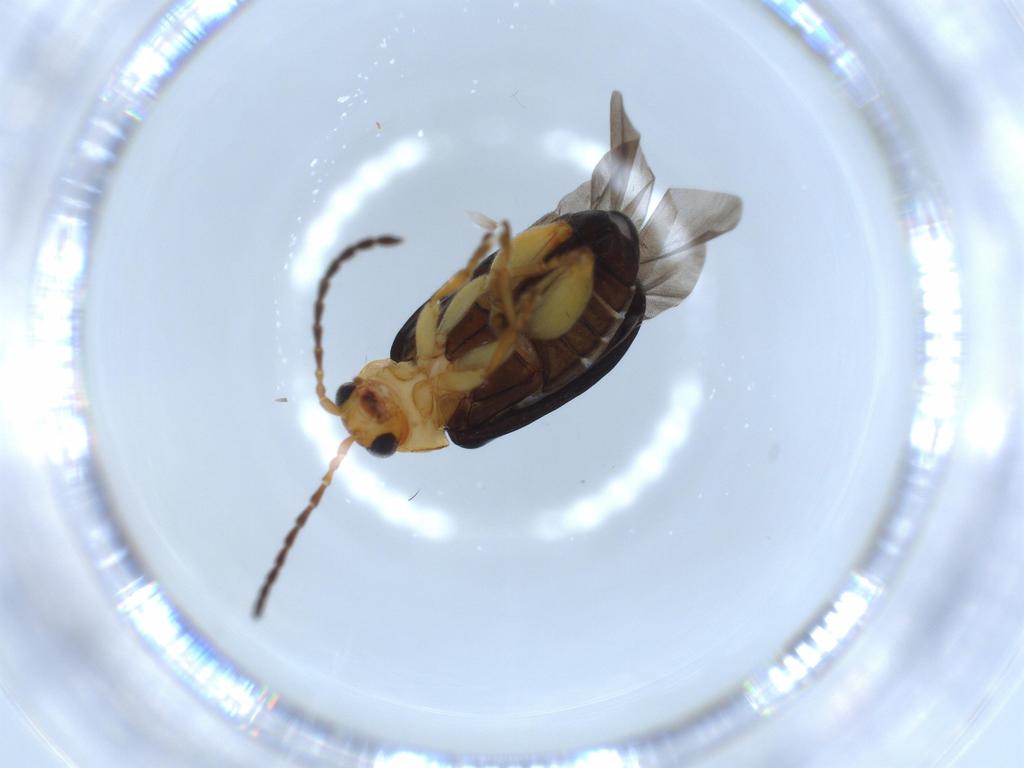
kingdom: Animalia
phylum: Arthropoda
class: Insecta
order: Coleoptera
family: Chrysomelidae
